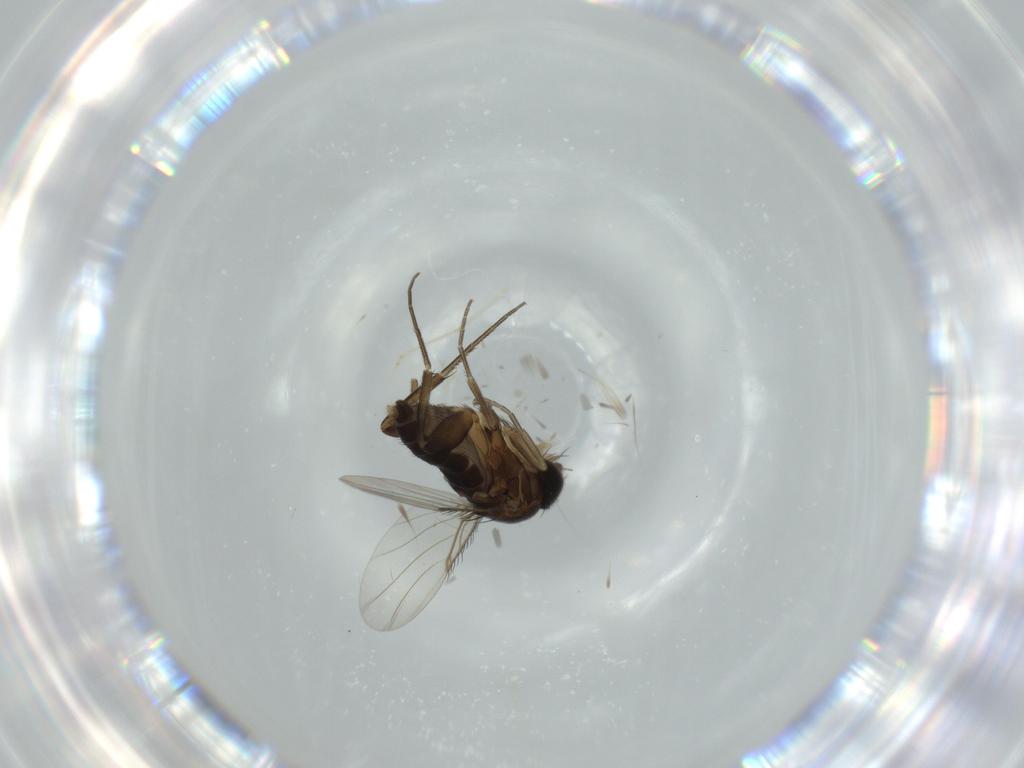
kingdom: Animalia
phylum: Arthropoda
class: Insecta
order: Diptera
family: Phoridae
